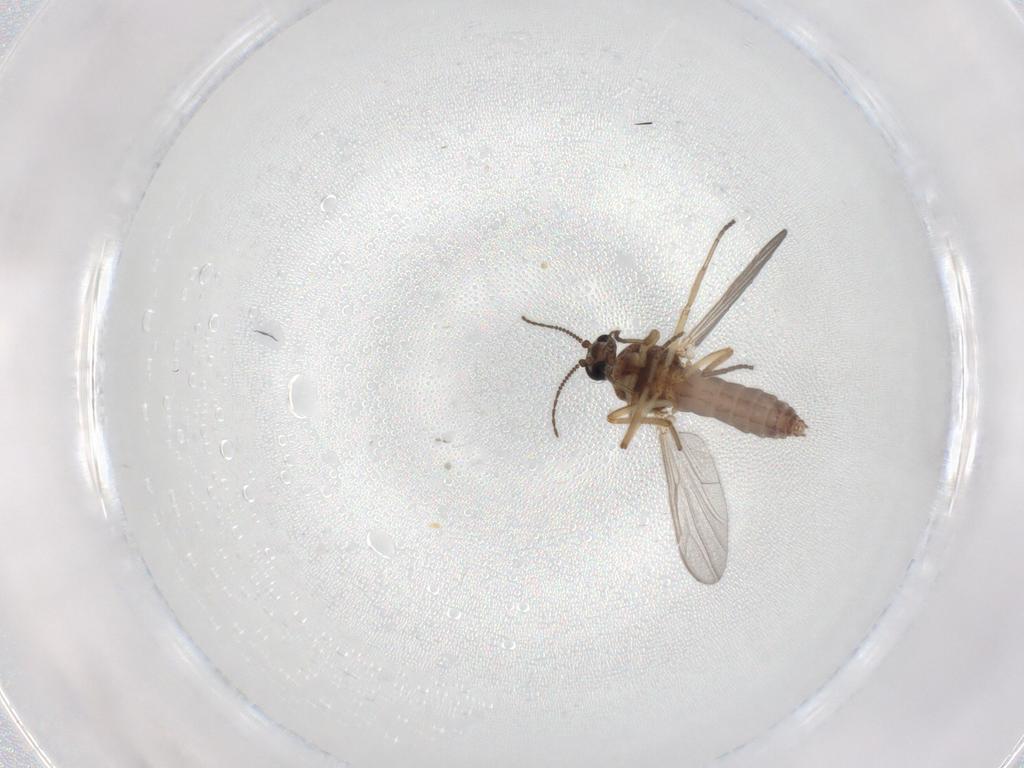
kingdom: Animalia
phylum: Arthropoda
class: Insecta
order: Diptera
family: Ceratopogonidae
